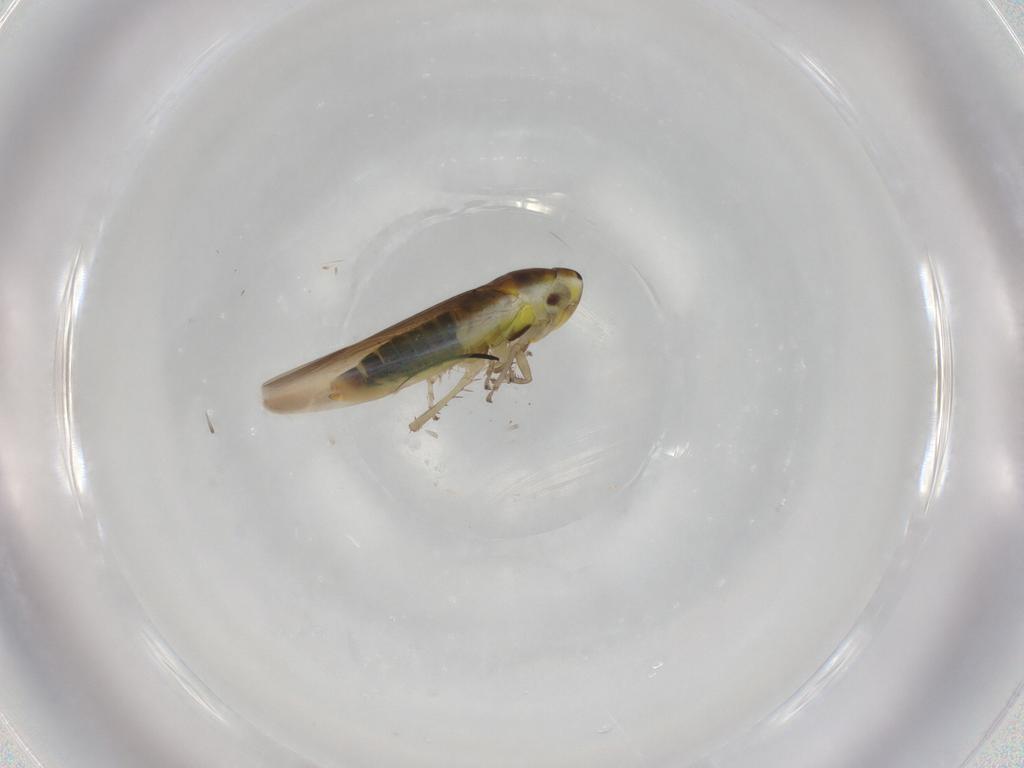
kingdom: Animalia
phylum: Arthropoda
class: Insecta
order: Hemiptera
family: Cicadellidae
